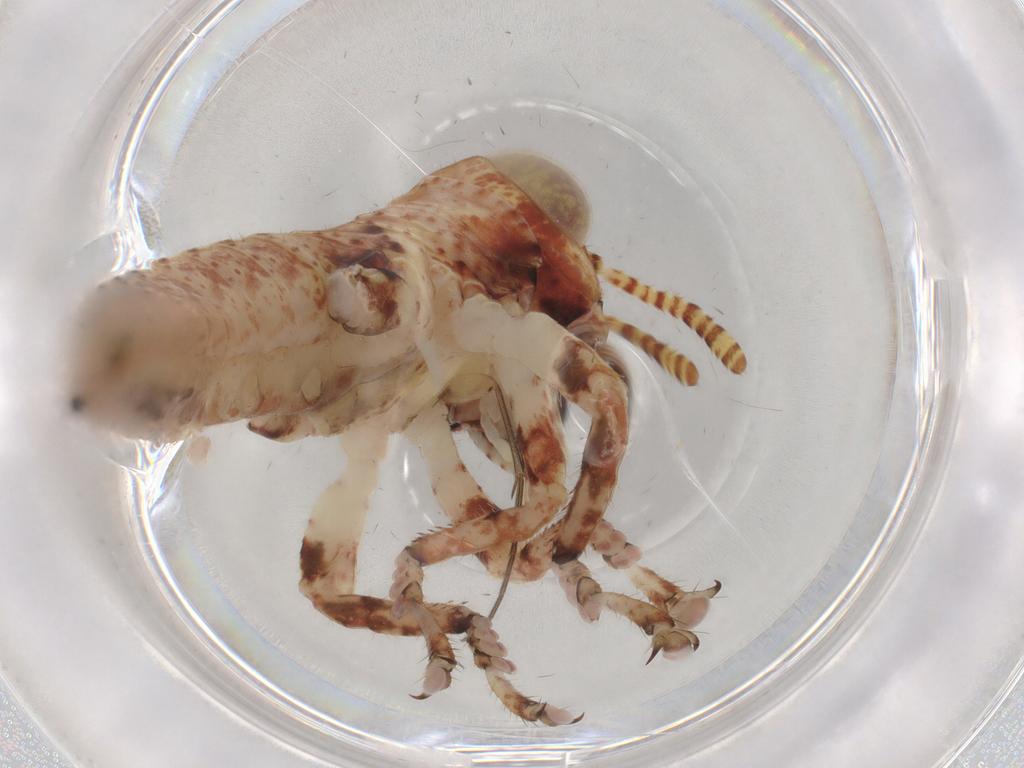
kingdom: Animalia
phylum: Arthropoda
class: Insecta
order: Orthoptera
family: Acrididae
